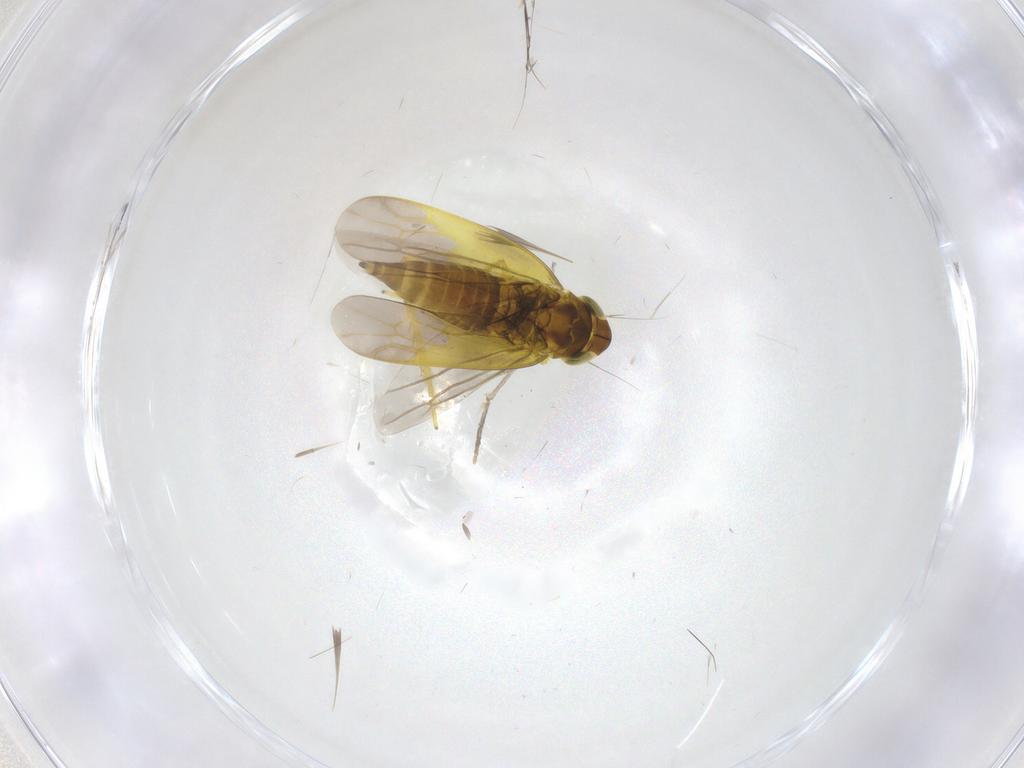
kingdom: Animalia
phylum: Arthropoda
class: Insecta
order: Hemiptera
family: Cicadellidae
